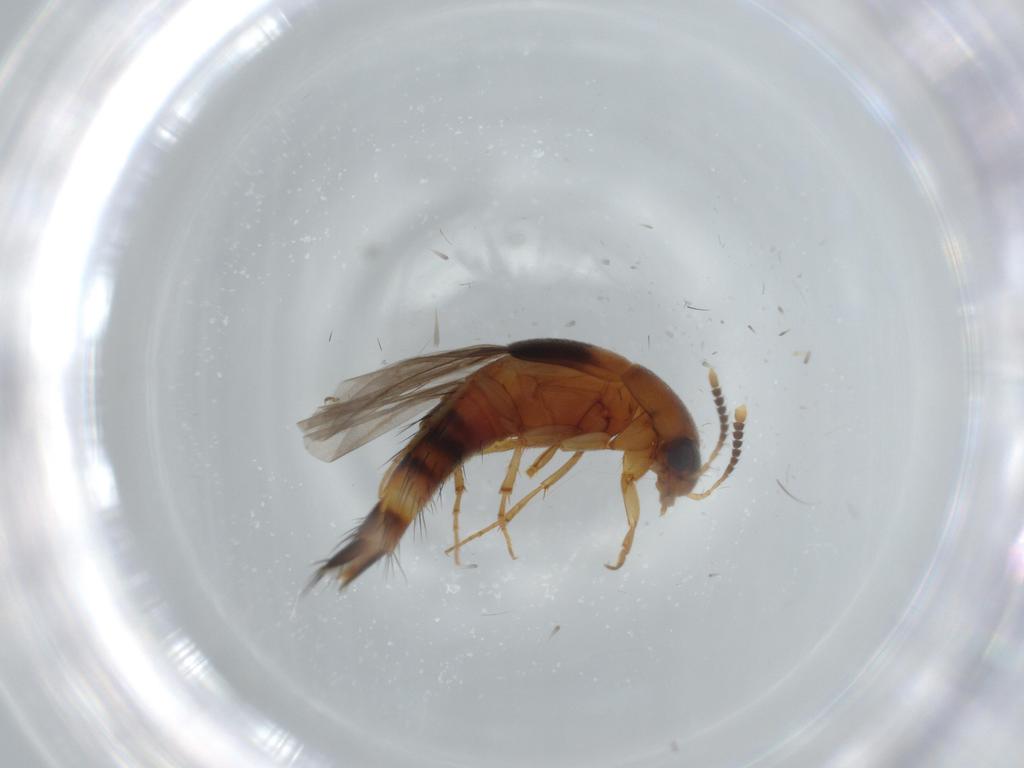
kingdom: Animalia
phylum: Arthropoda
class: Insecta
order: Coleoptera
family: Staphylinidae
